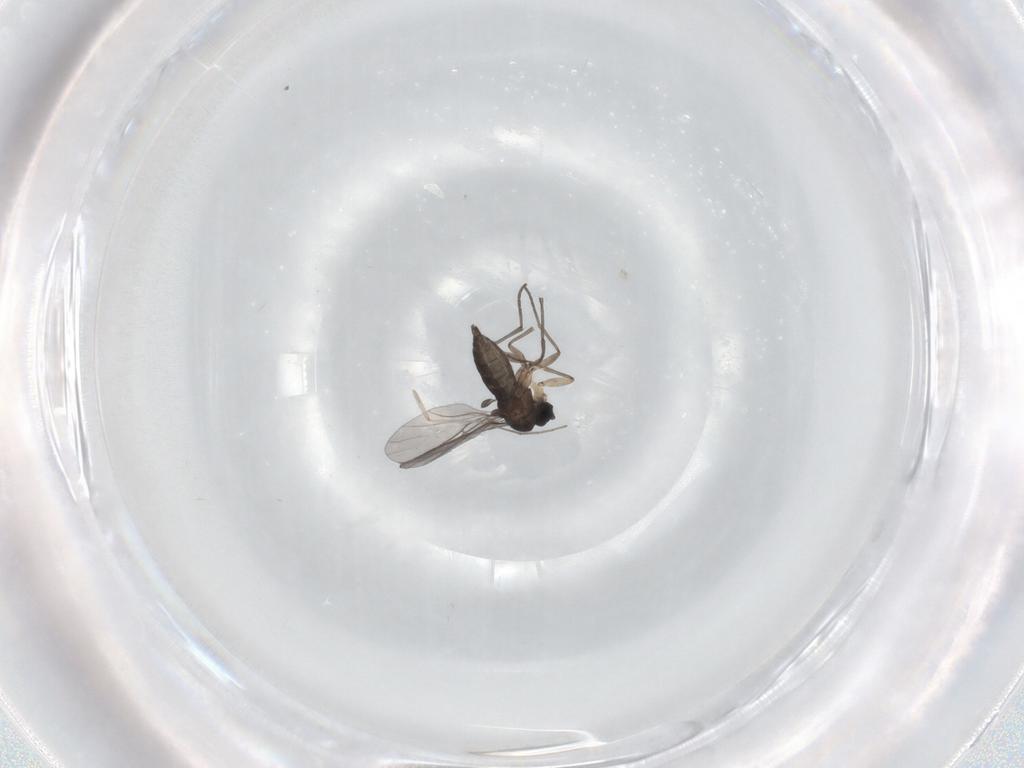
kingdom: Animalia
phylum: Arthropoda
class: Insecta
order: Diptera
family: Sciaridae
